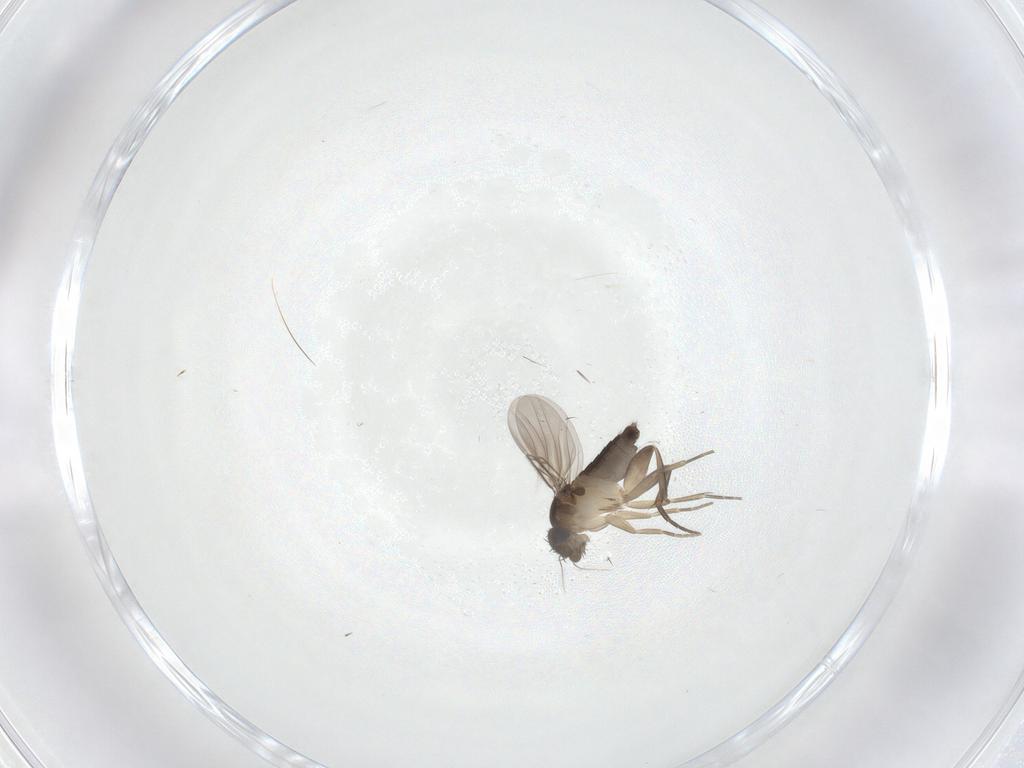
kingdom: Animalia
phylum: Arthropoda
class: Insecta
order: Diptera
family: Phoridae
